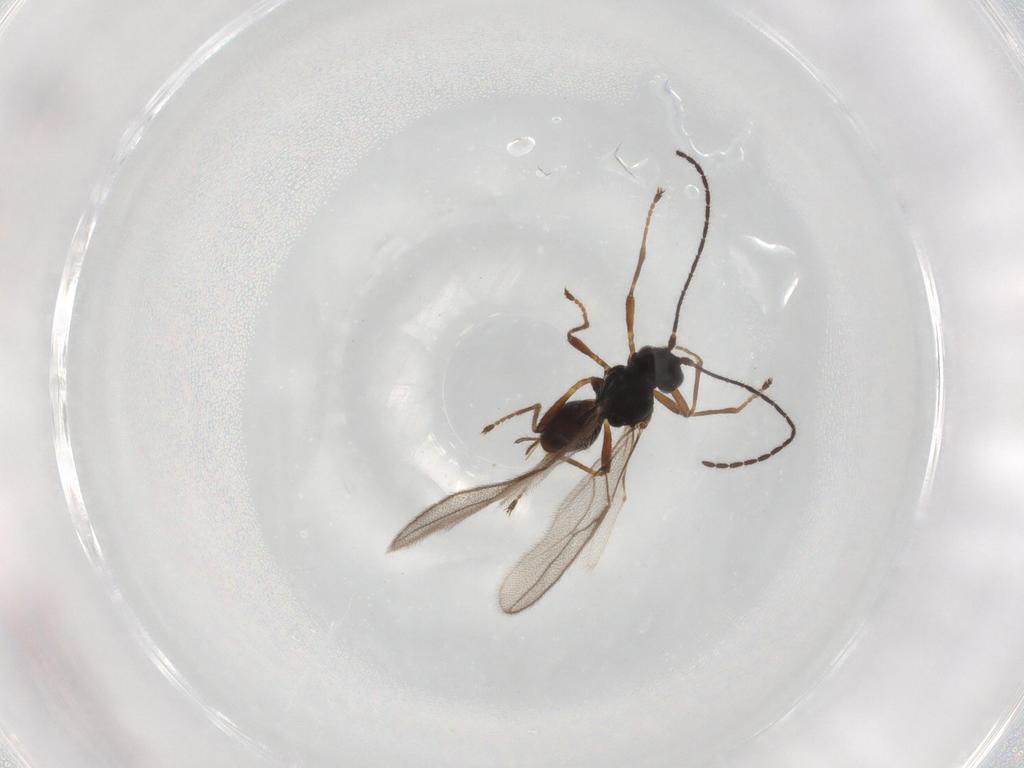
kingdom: Animalia
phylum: Arthropoda
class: Insecta
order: Hymenoptera
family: Braconidae
